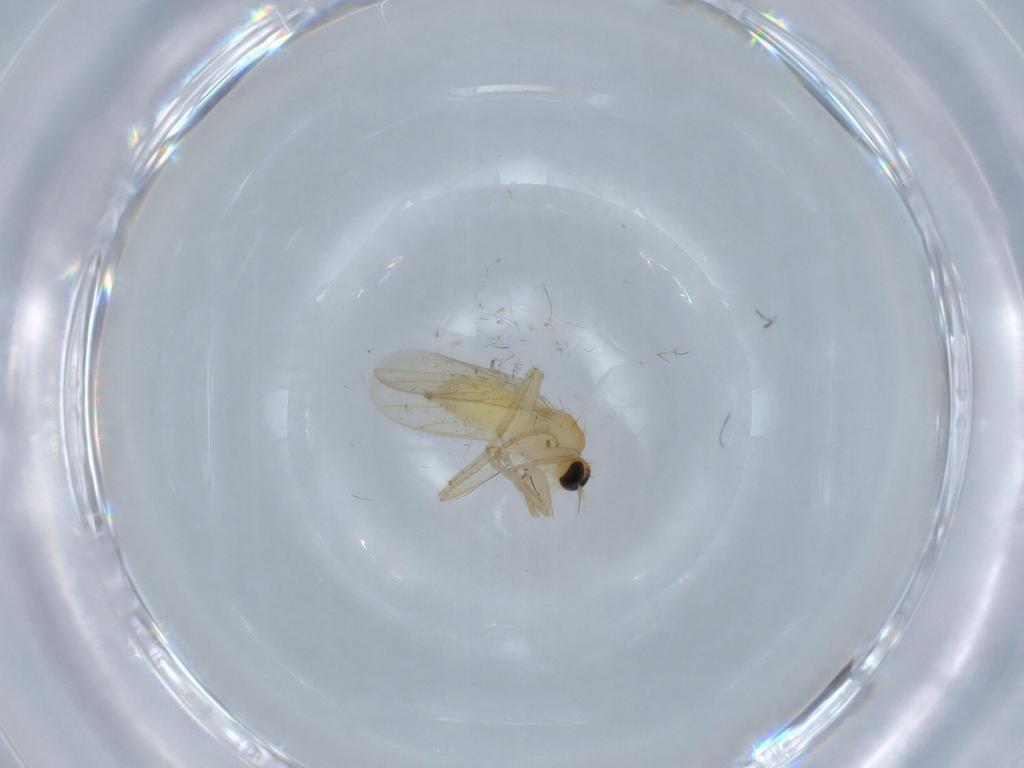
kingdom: Animalia
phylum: Arthropoda
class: Insecta
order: Diptera
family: Hybotidae
